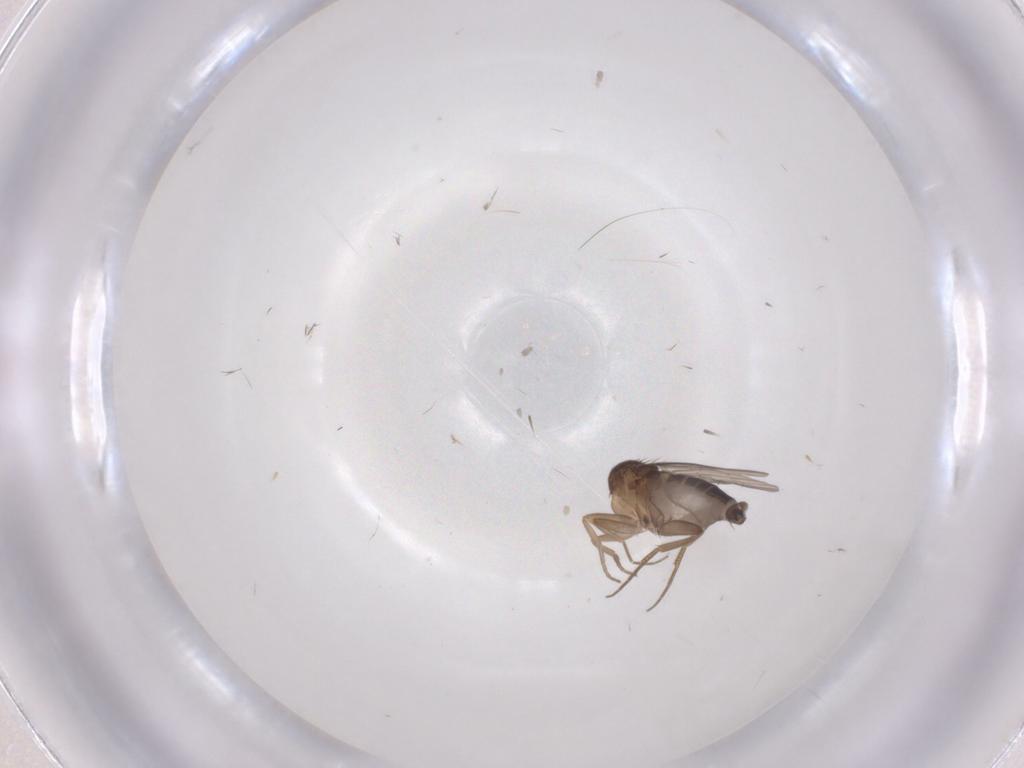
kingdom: Animalia
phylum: Arthropoda
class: Insecta
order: Diptera
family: Phoridae
